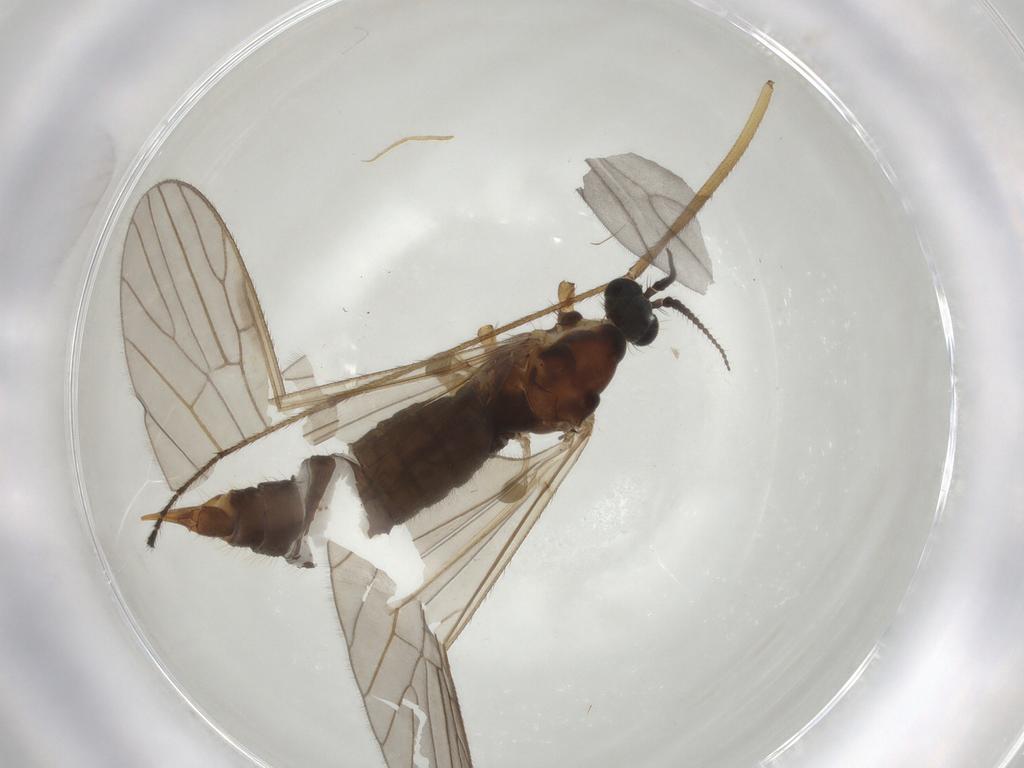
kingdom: Animalia
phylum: Arthropoda
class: Insecta
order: Diptera
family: Agromyzidae
